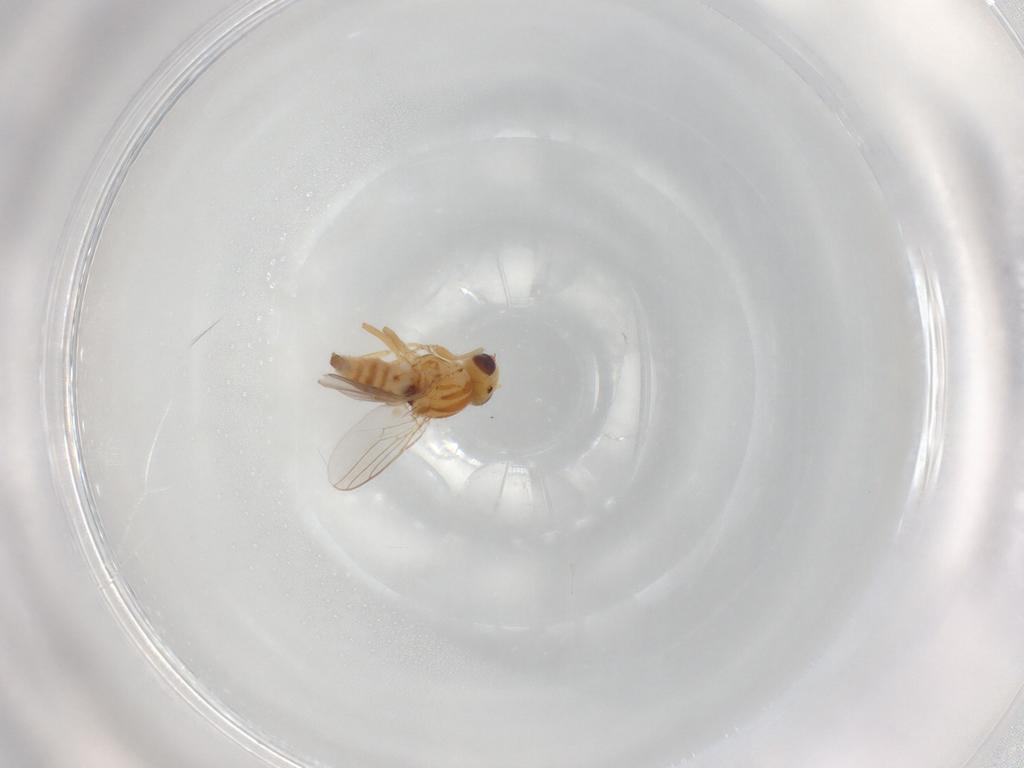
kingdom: Animalia
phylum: Arthropoda
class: Insecta
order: Diptera
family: Chloropidae
